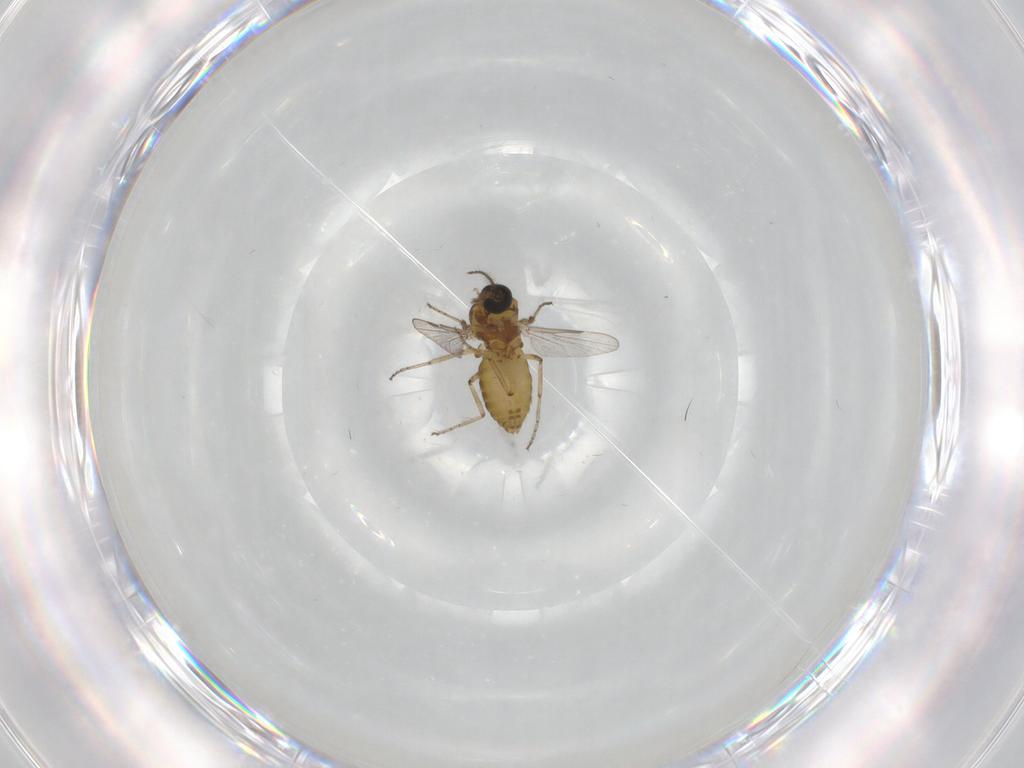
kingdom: Animalia
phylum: Arthropoda
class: Insecta
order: Diptera
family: Ceratopogonidae
